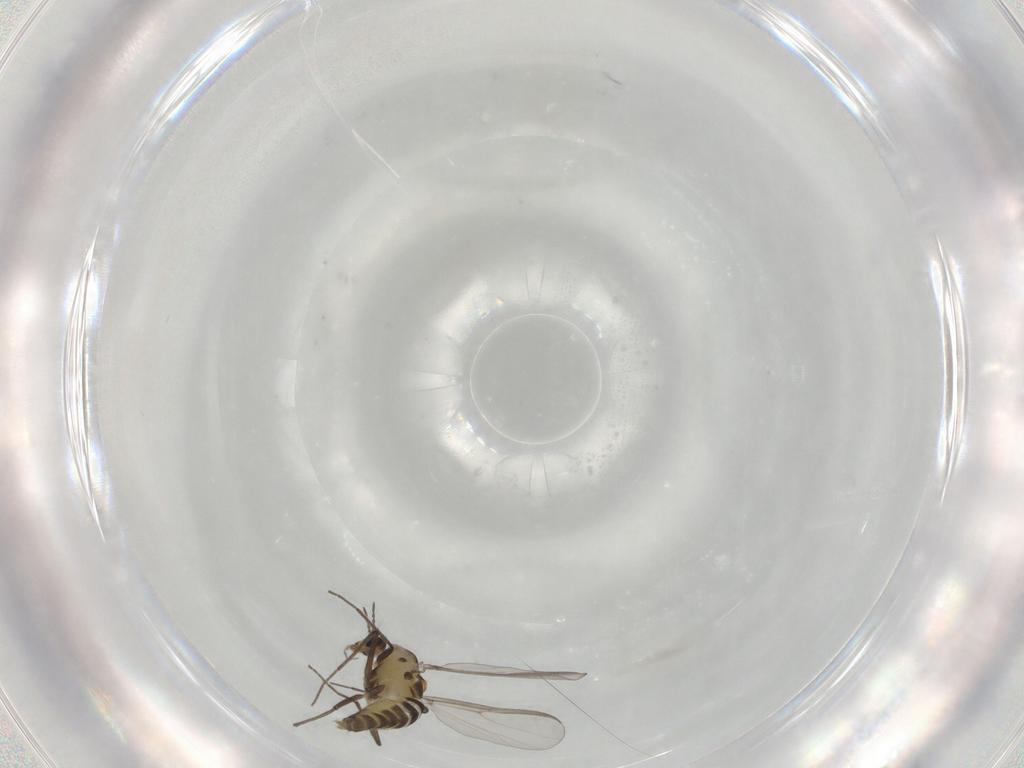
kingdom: Animalia
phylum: Arthropoda
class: Insecta
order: Diptera
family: Chironomidae
